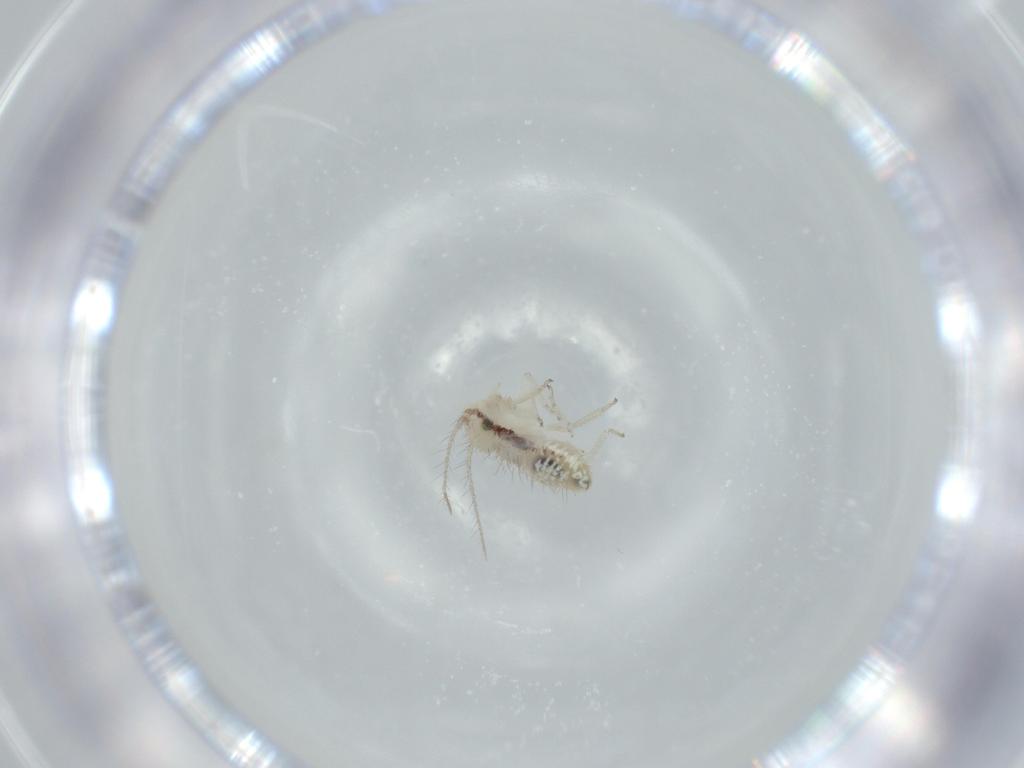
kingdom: Animalia
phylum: Arthropoda
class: Insecta
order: Psocodea
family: Pseudocaeciliidae
